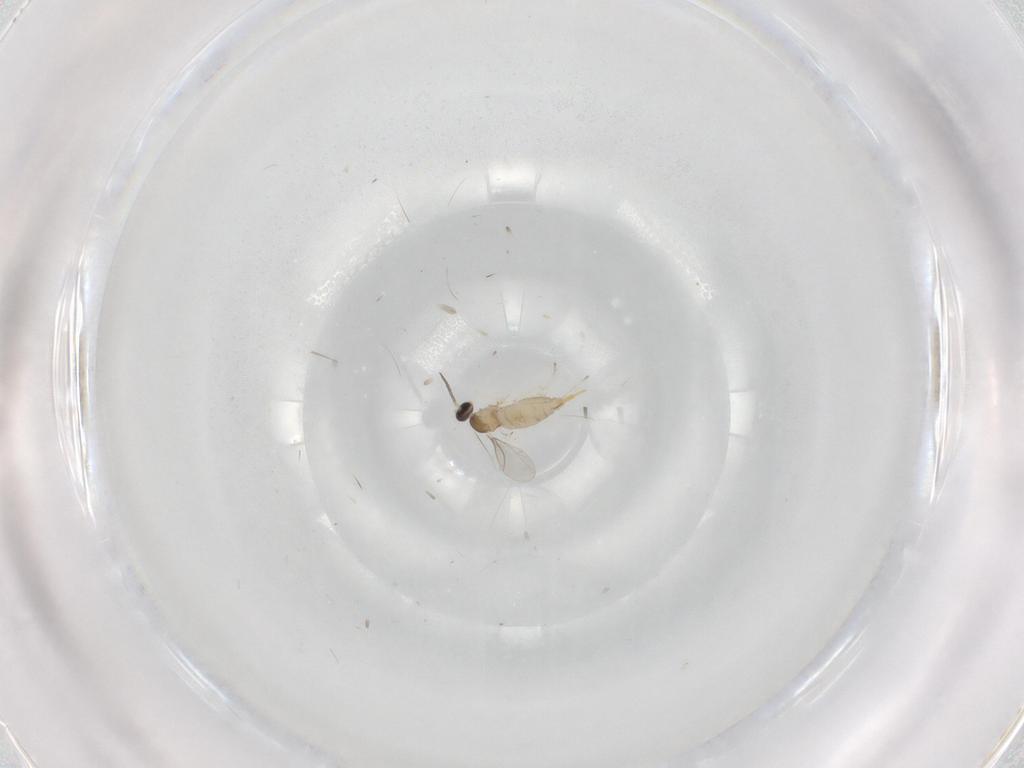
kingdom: Animalia
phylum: Arthropoda
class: Insecta
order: Diptera
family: Cecidomyiidae
